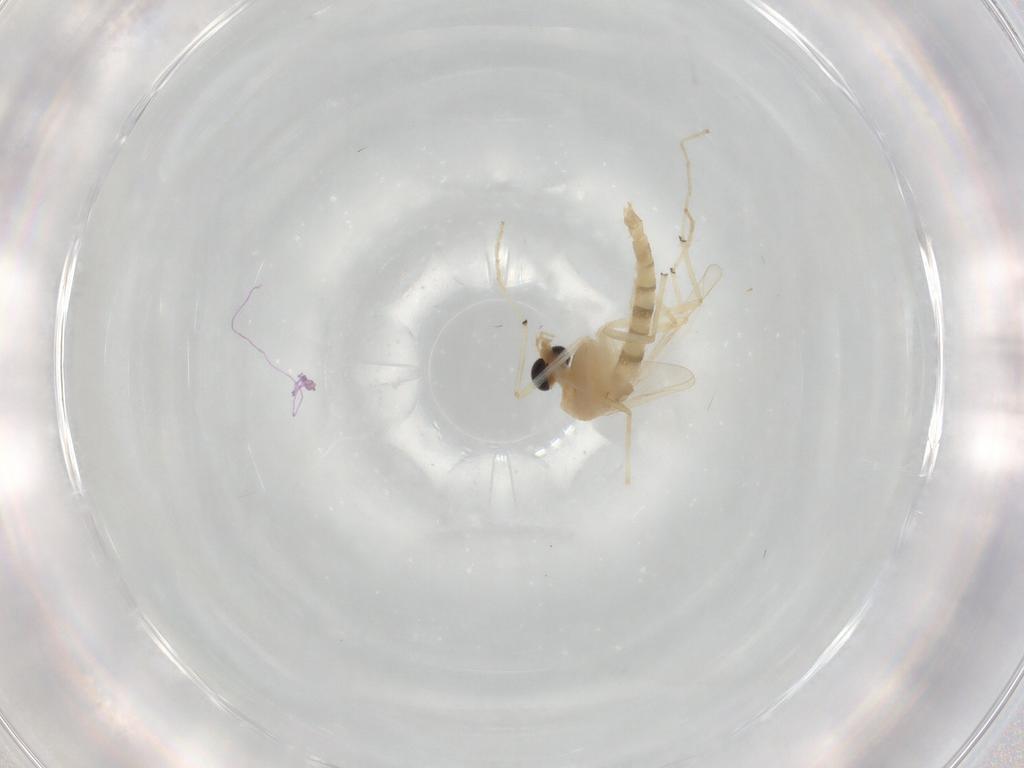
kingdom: Animalia
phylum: Arthropoda
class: Insecta
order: Diptera
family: Chironomidae
